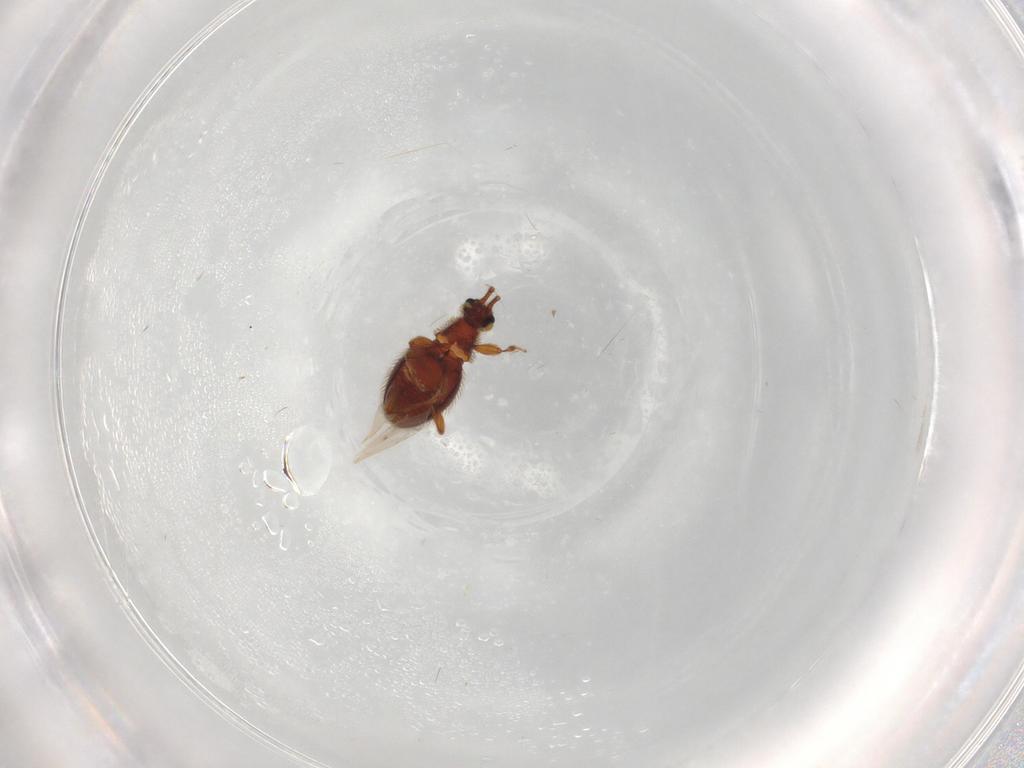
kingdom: Animalia
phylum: Arthropoda
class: Insecta
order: Coleoptera
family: Staphylinidae
